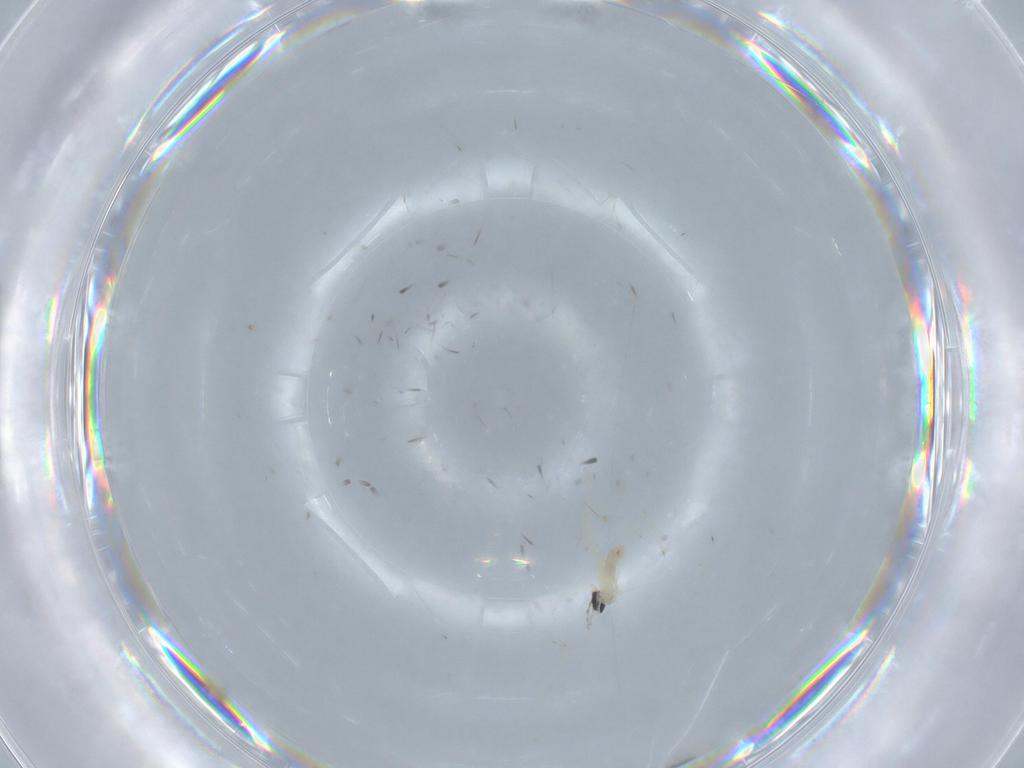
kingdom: Animalia
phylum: Arthropoda
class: Insecta
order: Diptera
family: Cecidomyiidae
